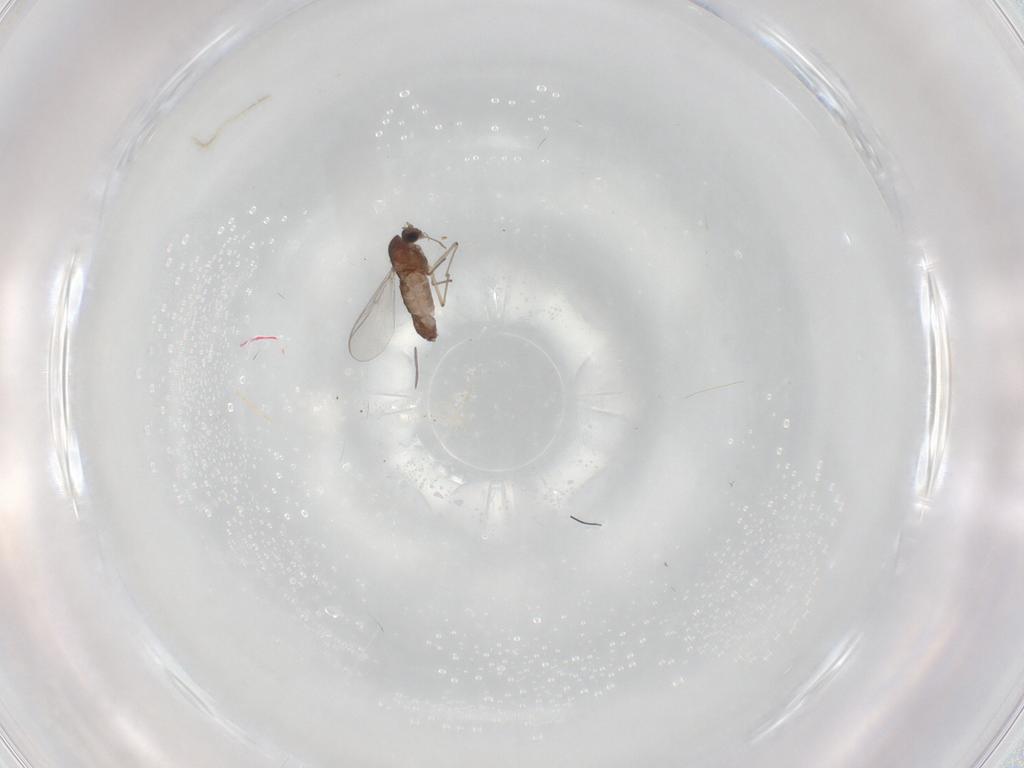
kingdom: Animalia
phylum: Arthropoda
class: Insecta
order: Diptera
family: Chironomidae
